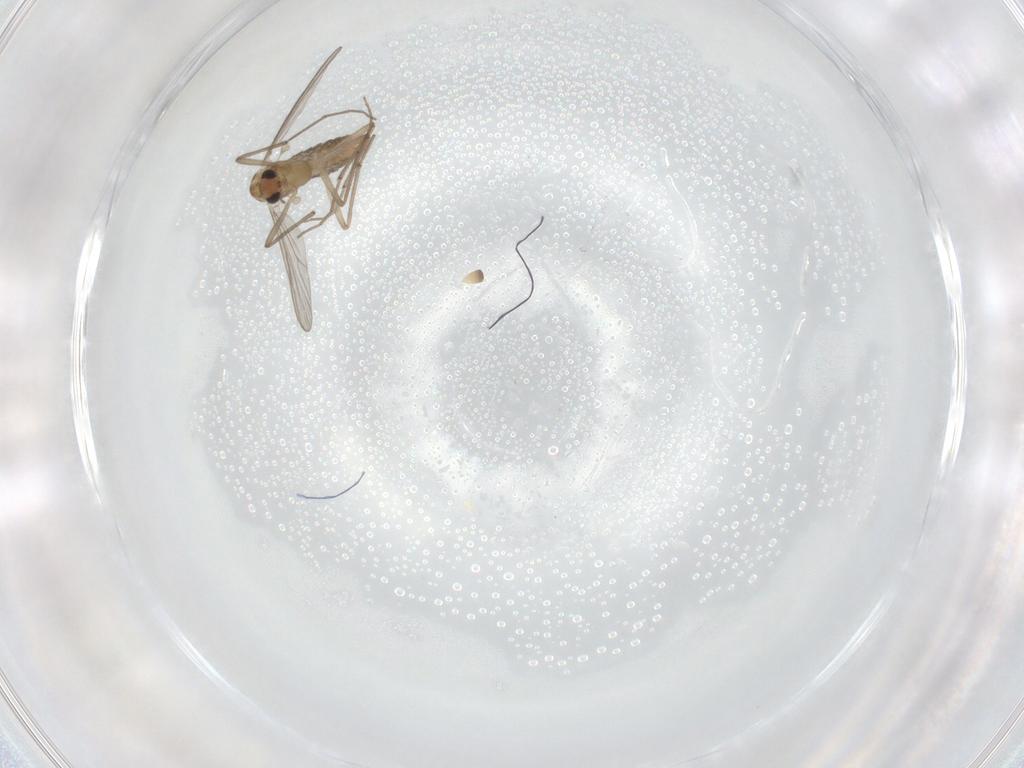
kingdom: Animalia
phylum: Arthropoda
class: Insecta
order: Diptera
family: Chironomidae
